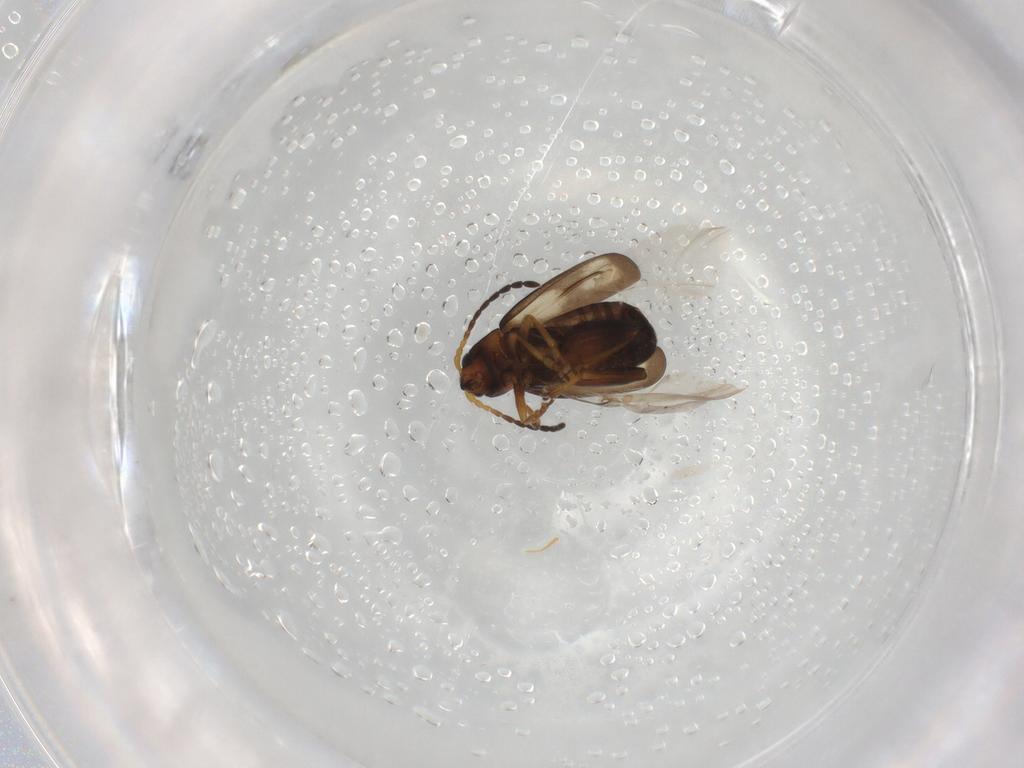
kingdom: Animalia
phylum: Arthropoda
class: Insecta
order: Coleoptera
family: Chrysomelidae
